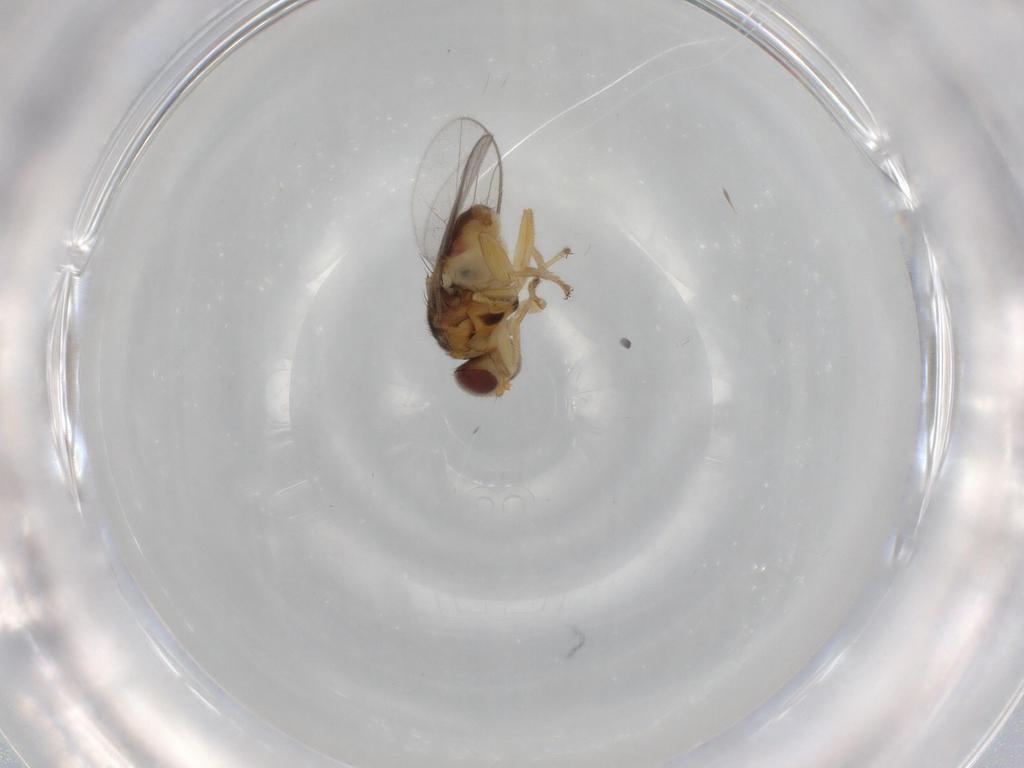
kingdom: Animalia
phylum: Arthropoda
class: Insecta
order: Diptera
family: Chloropidae
